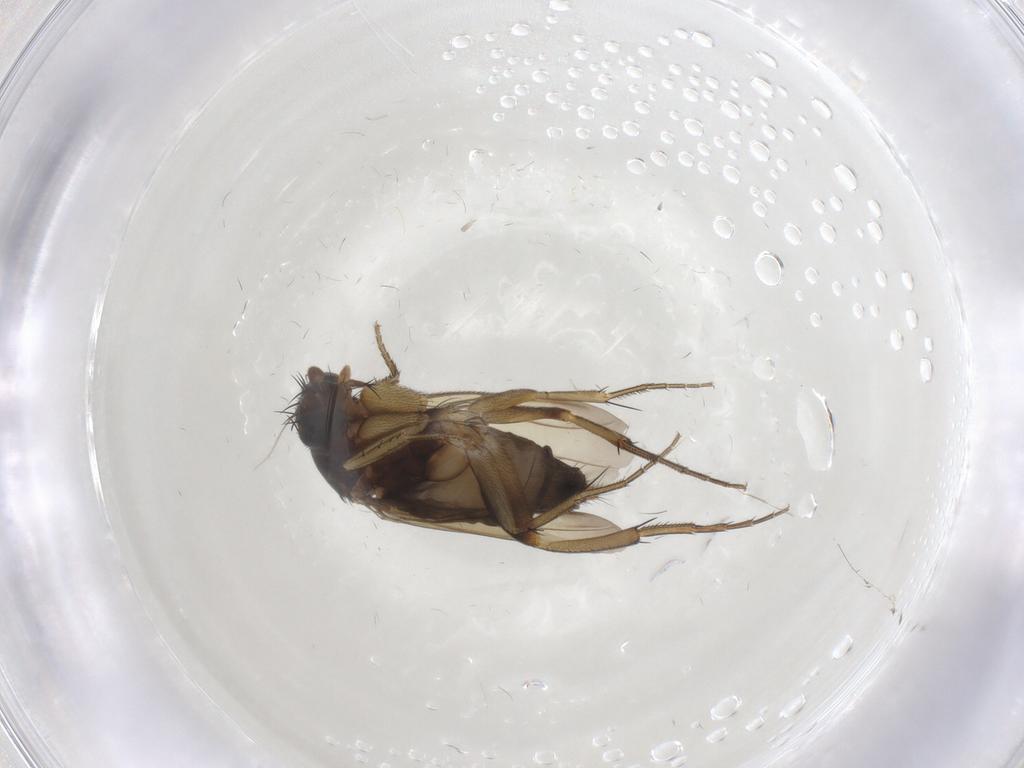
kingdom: Animalia
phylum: Arthropoda
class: Insecta
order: Diptera
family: Phoridae
